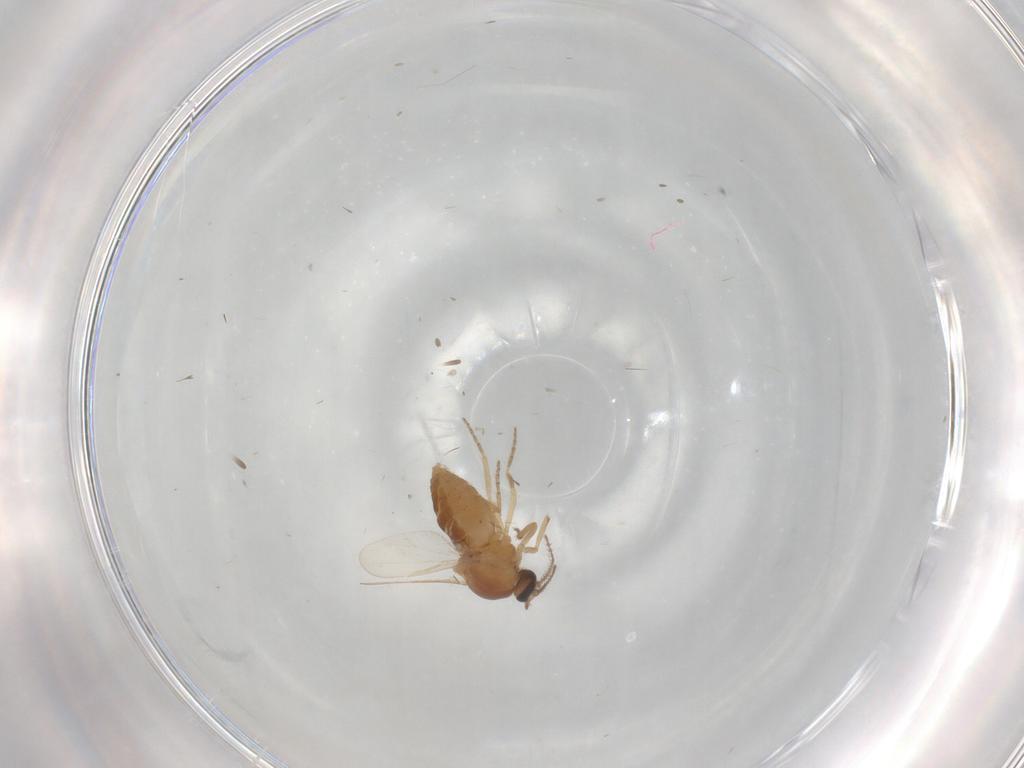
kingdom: Animalia
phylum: Arthropoda
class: Insecta
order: Diptera
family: Ceratopogonidae
